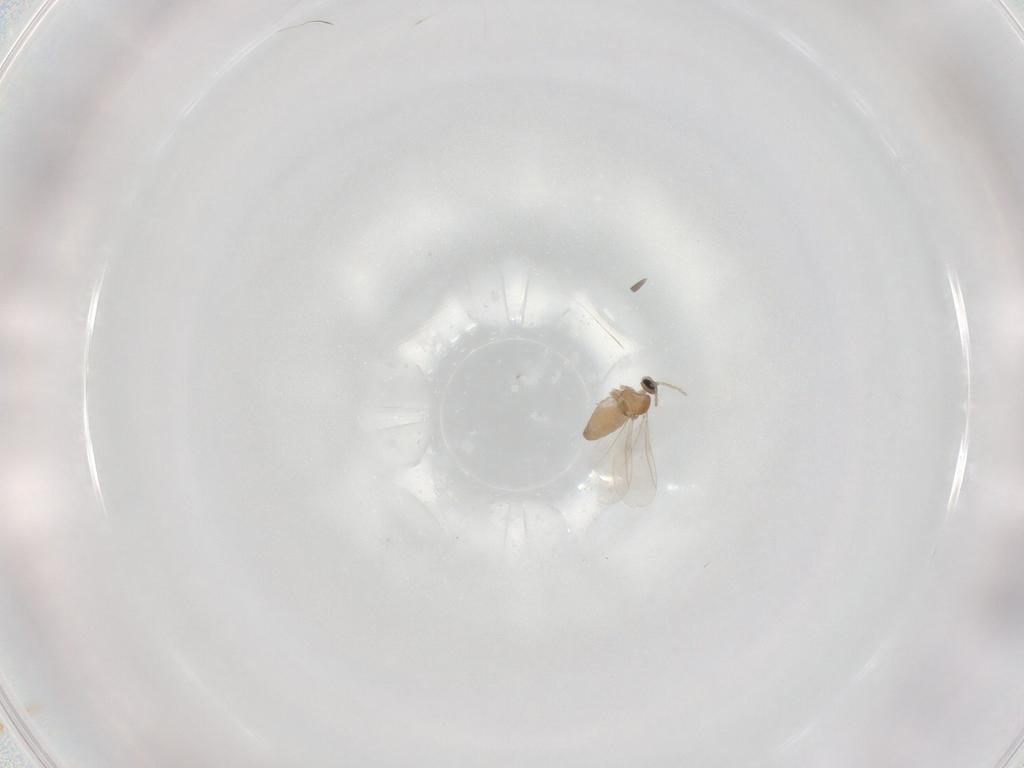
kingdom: Animalia
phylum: Arthropoda
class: Insecta
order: Diptera
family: Cecidomyiidae
